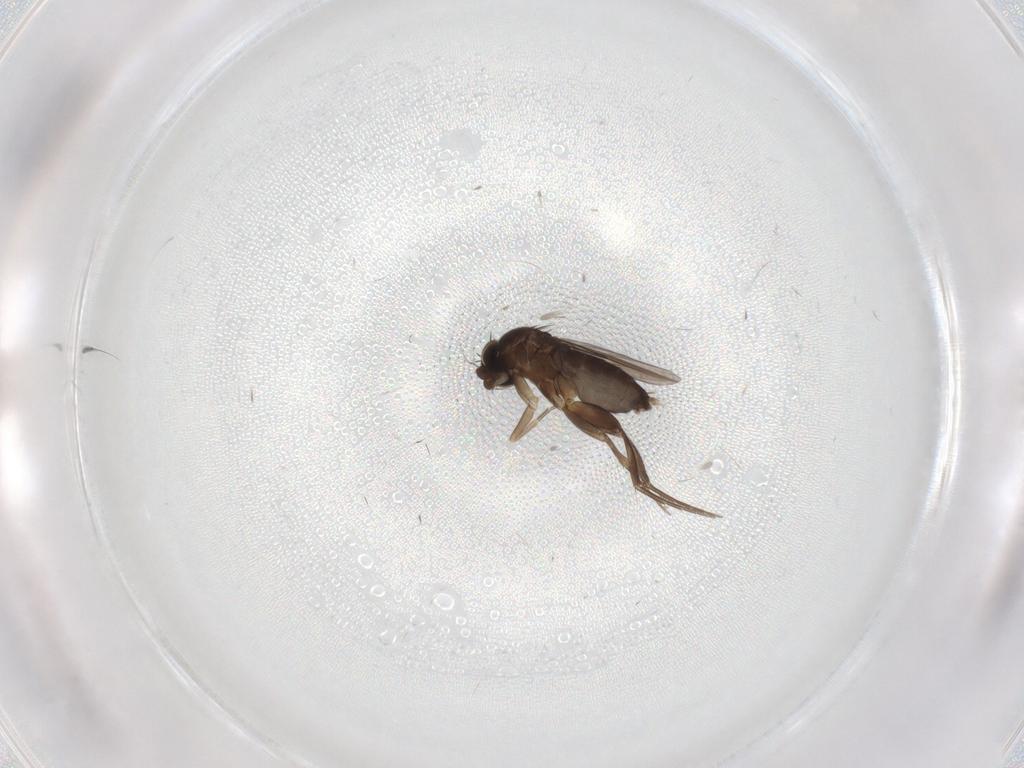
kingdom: Animalia
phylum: Arthropoda
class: Insecta
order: Diptera
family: Phoridae
